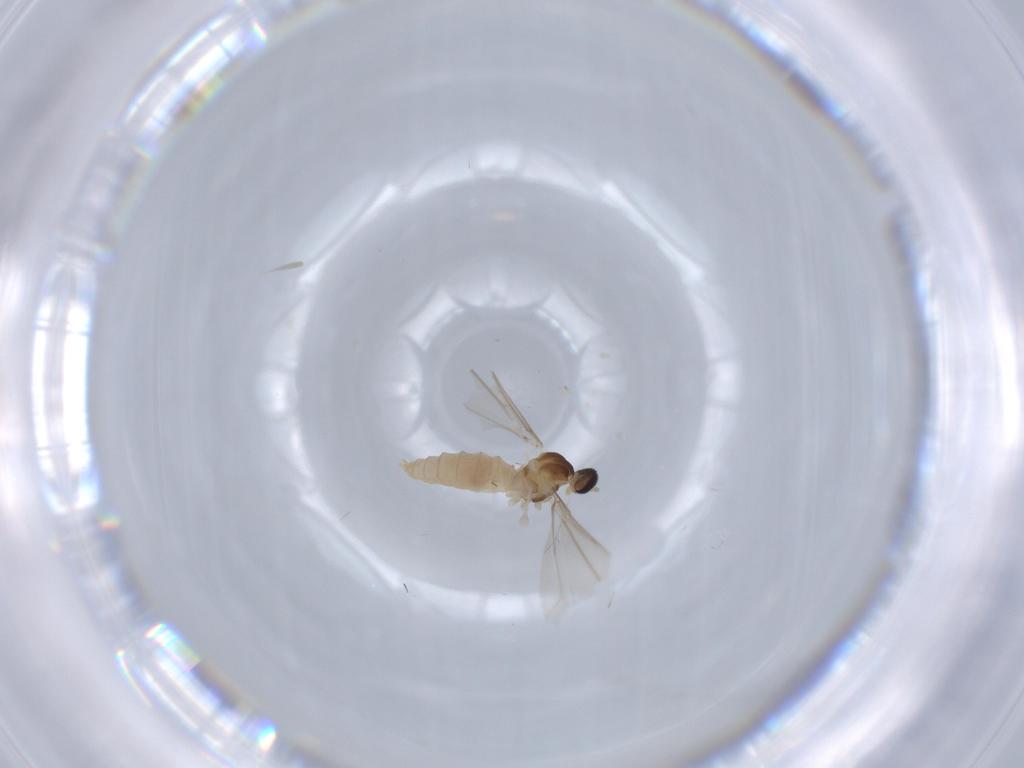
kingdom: Animalia
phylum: Arthropoda
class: Insecta
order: Diptera
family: Cecidomyiidae
